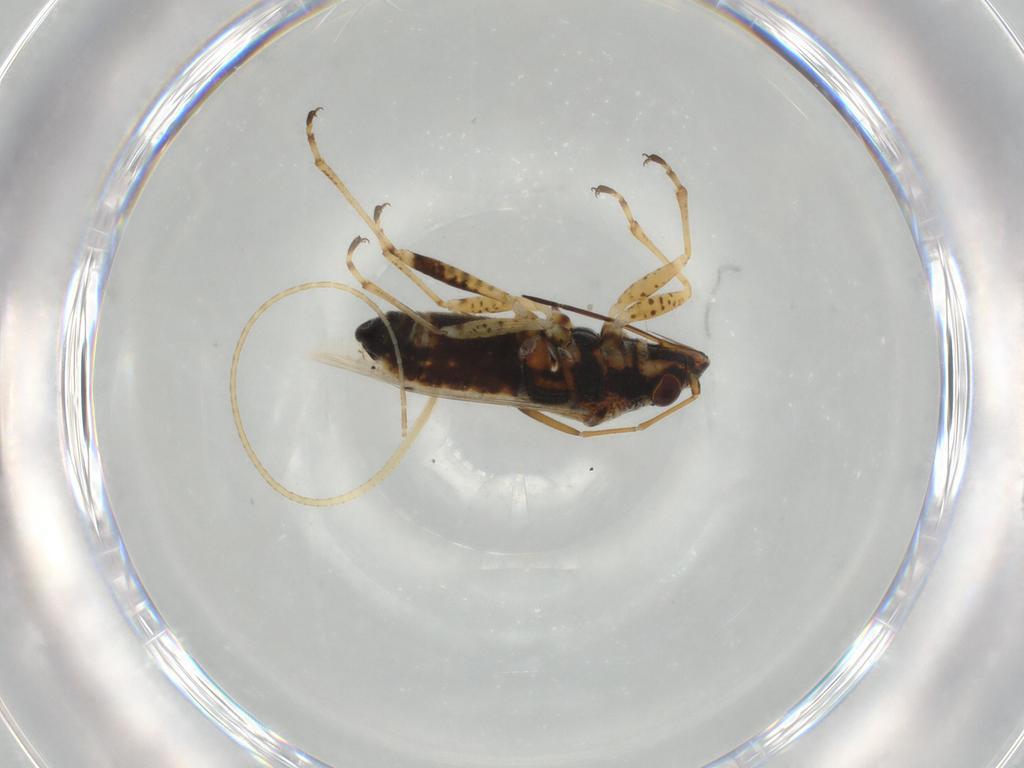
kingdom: Animalia
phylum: Arthropoda
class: Insecta
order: Hemiptera
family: Lygaeidae
